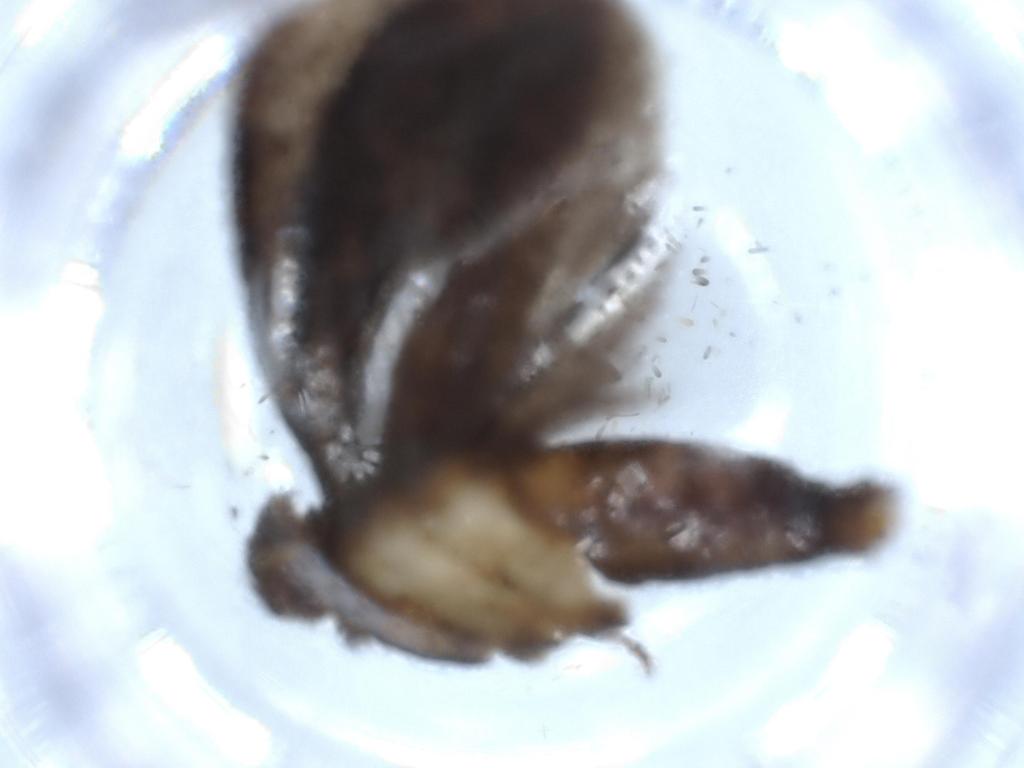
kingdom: Animalia
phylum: Arthropoda
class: Insecta
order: Lepidoptera
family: Tineidae
